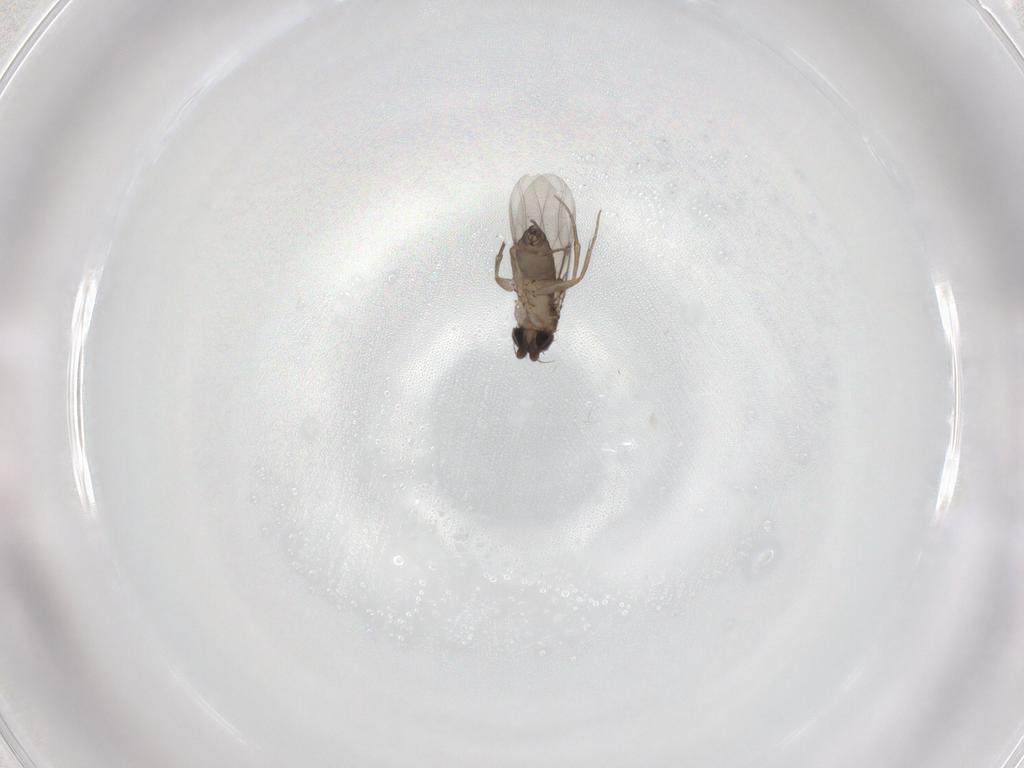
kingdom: Animalia
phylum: Arthropoda
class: Insecta
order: Diptera
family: Phoridae
